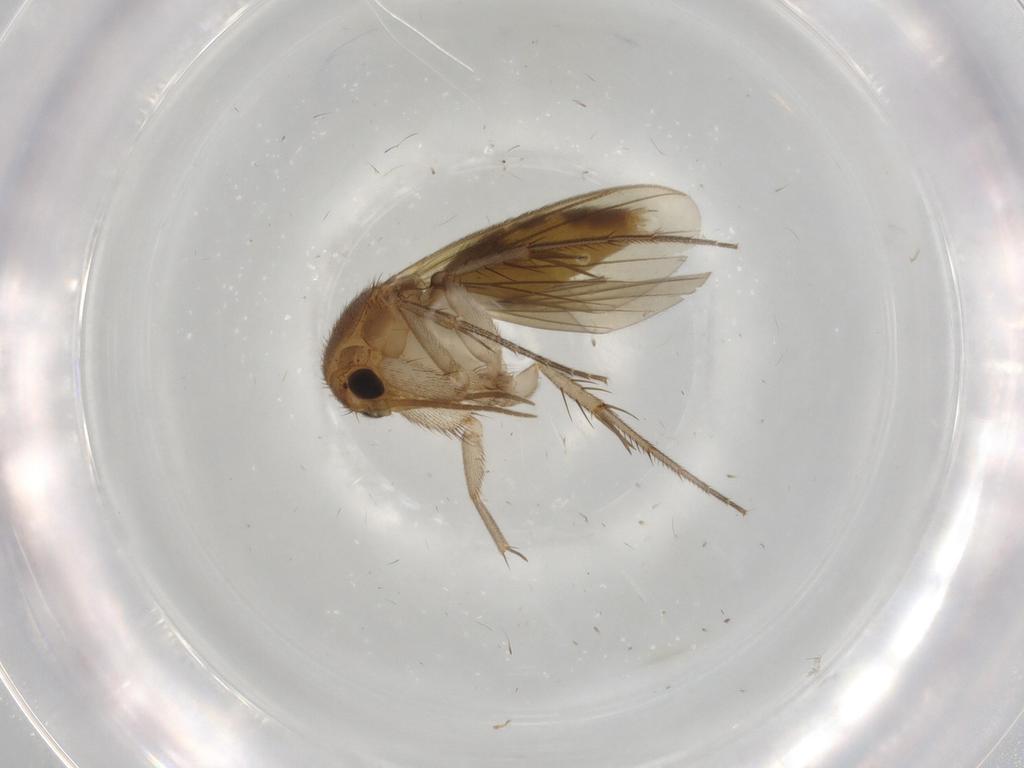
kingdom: Animalia
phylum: Arthropoda
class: Insecta
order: Diptera
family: Mycetophilidae
